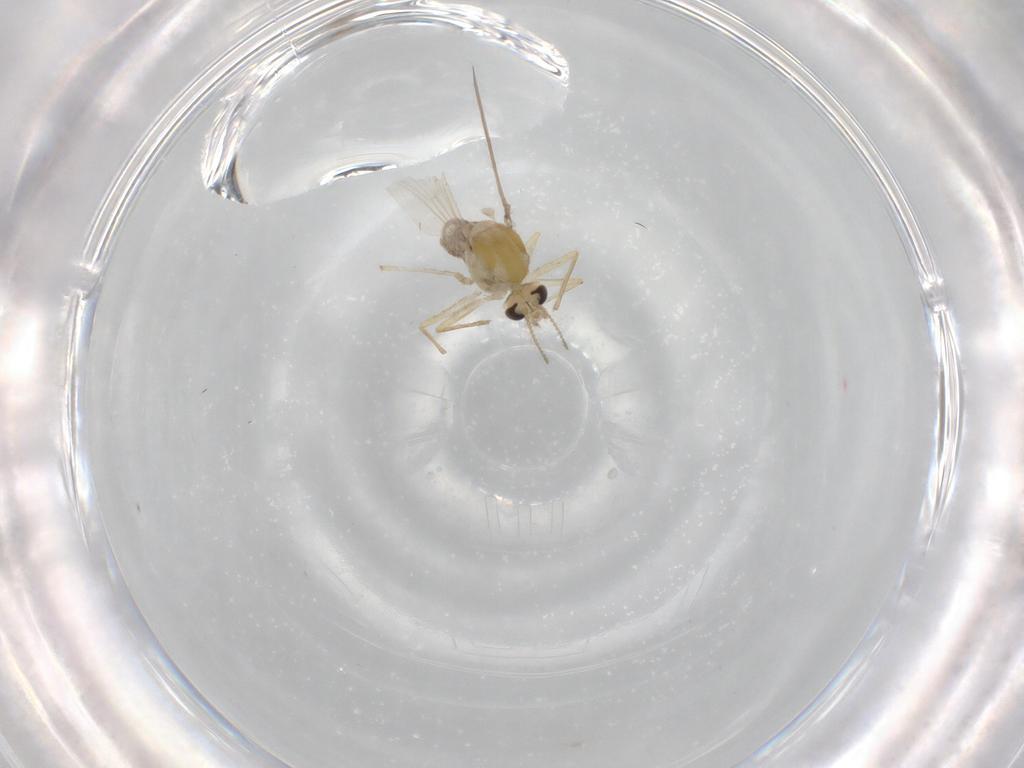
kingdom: Animalia
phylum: Arthropoda
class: Insecta
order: Diptera
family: Chironomidae
